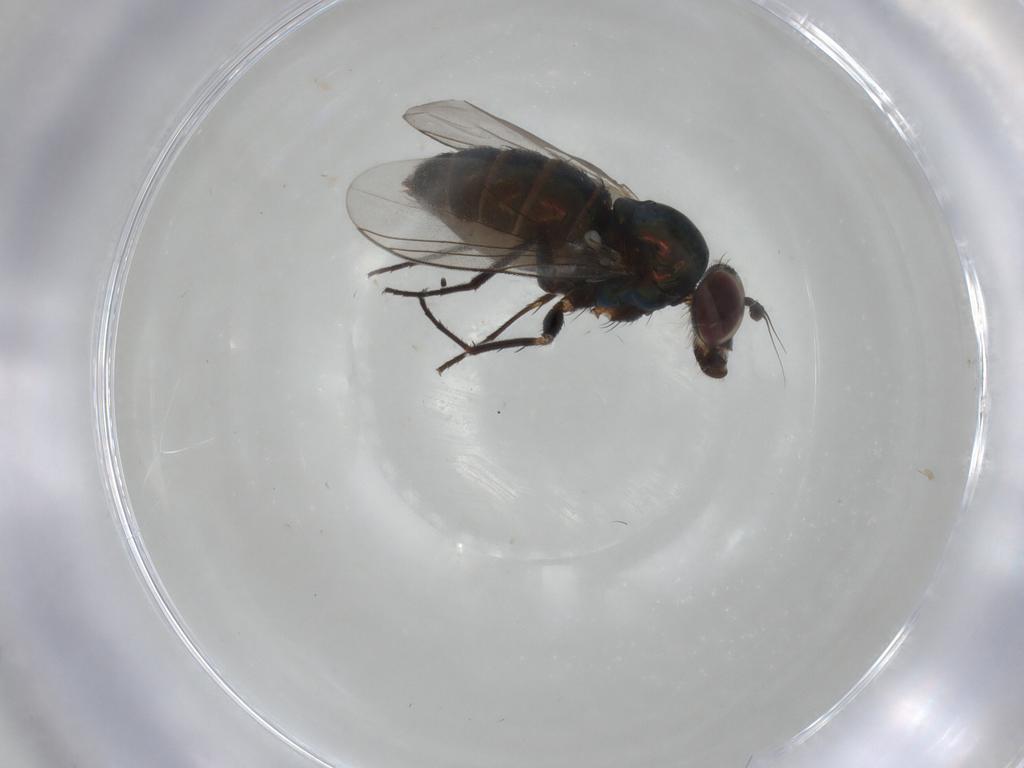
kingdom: Animalia
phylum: Arthropoda
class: Insecta
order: Diptera
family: Dolichopodidae
